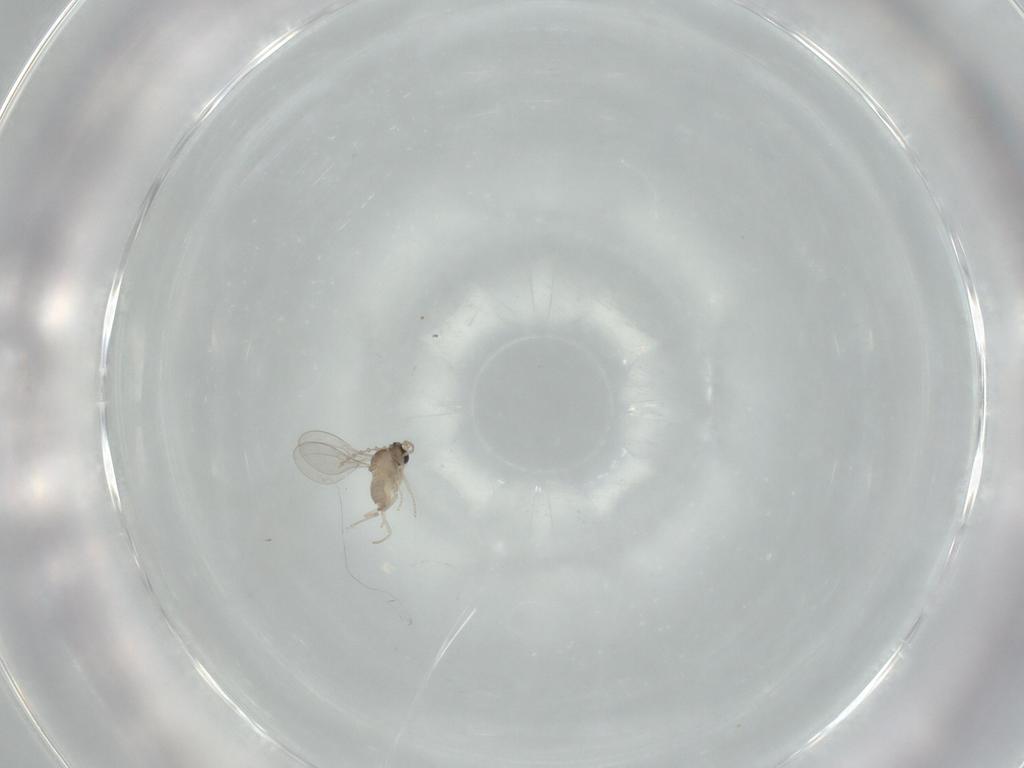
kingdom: Animalia
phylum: Arthropoda
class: Insecta
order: Diptera
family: Cecidomyiidae
